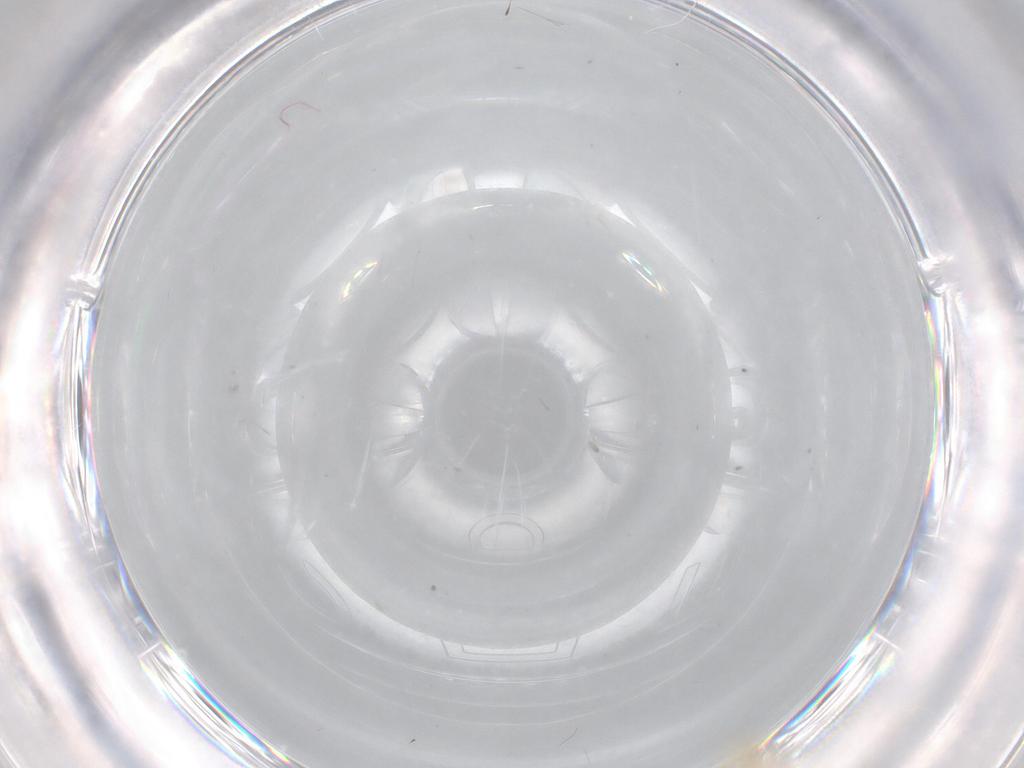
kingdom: Animalia
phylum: Arthropoda
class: Insecta
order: Diptera
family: Phoridae
